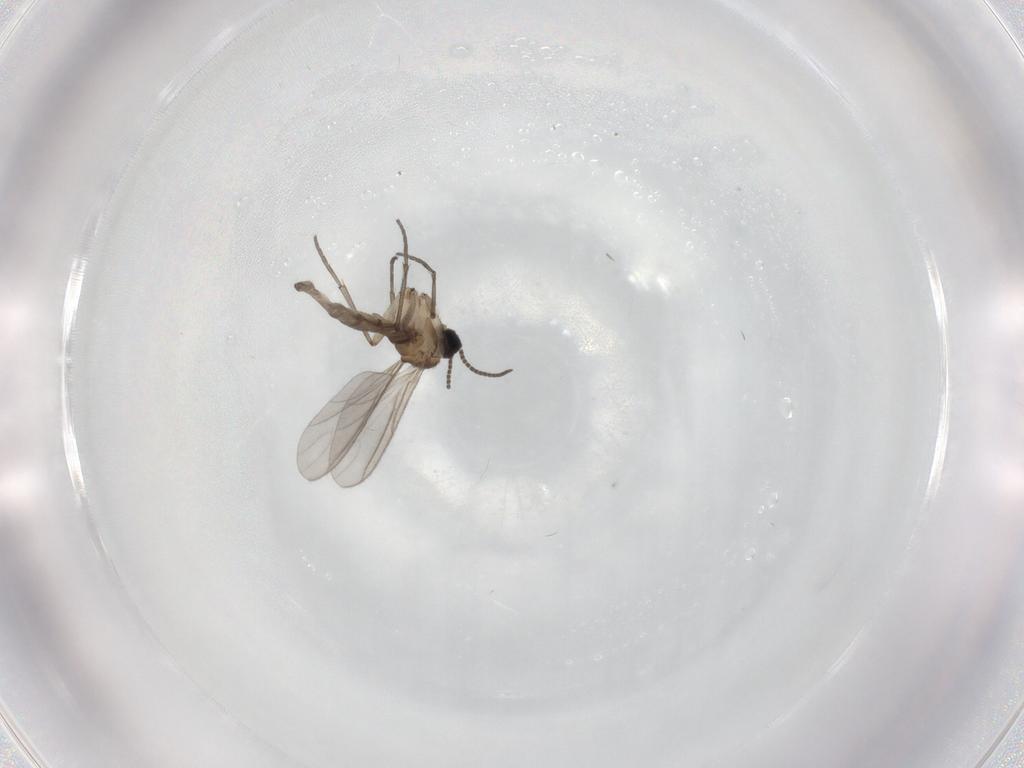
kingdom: Animalia
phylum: Arthropoda
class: Insecta
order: Diptera
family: Sciaridae
